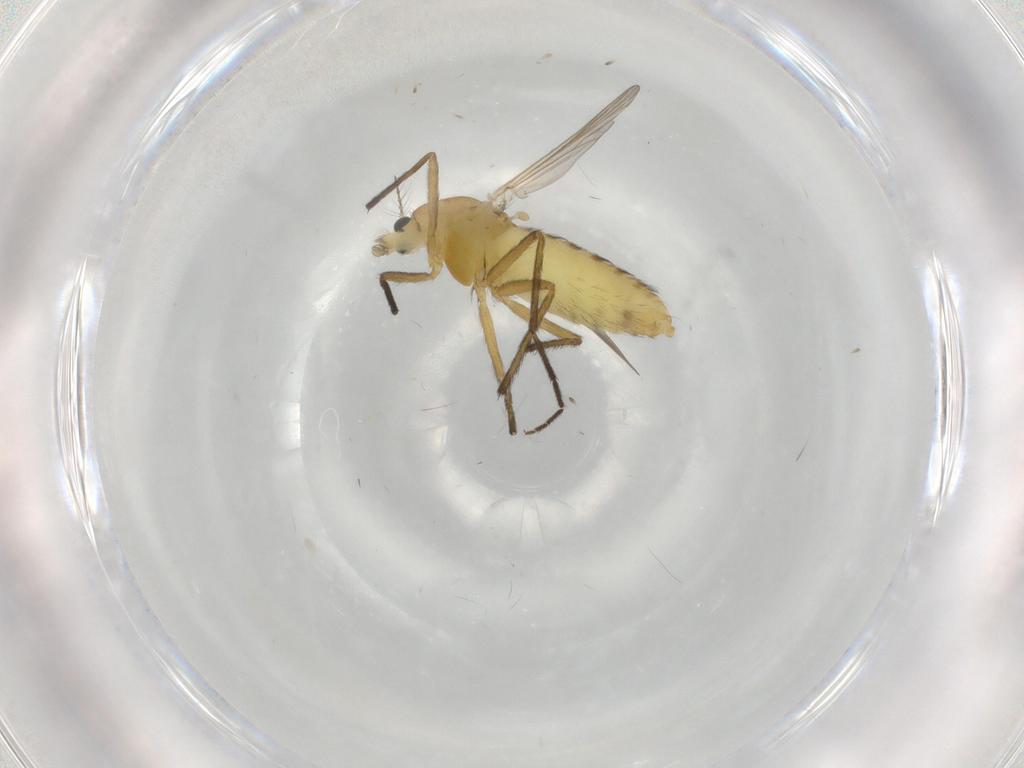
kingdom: Animalia
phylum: Arthropoda
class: Insecta
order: Diptera
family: Chironomidae
